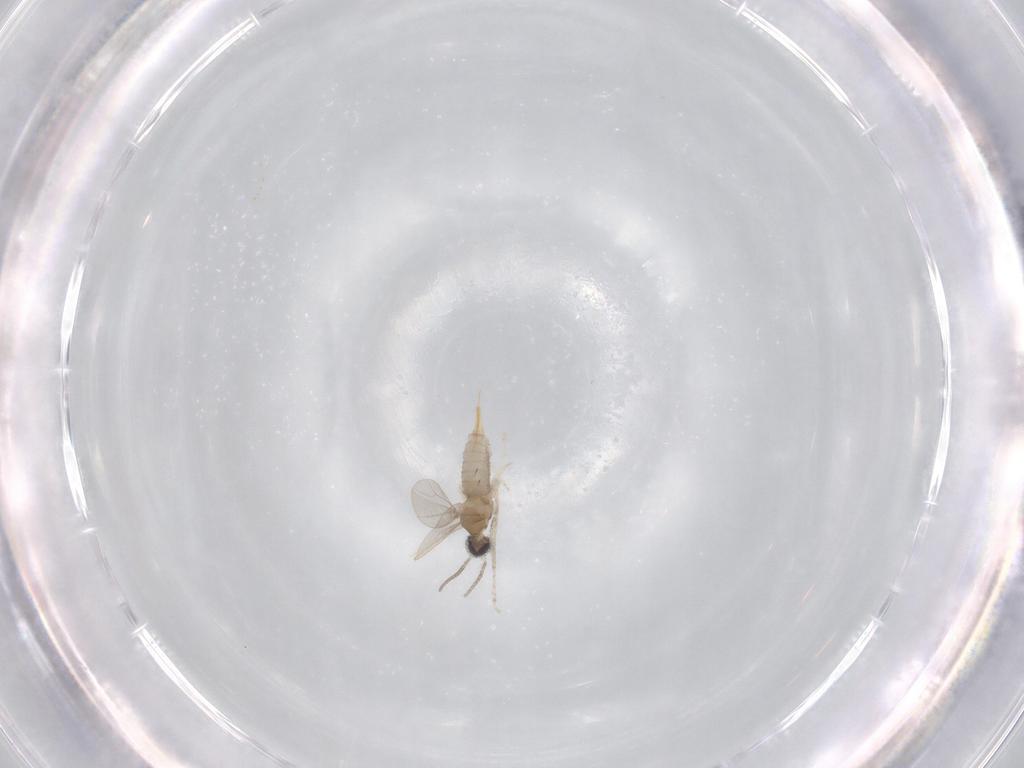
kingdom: Animalia
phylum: Arthropoda
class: Insecta
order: Diptera
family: Cecidomyiidae
